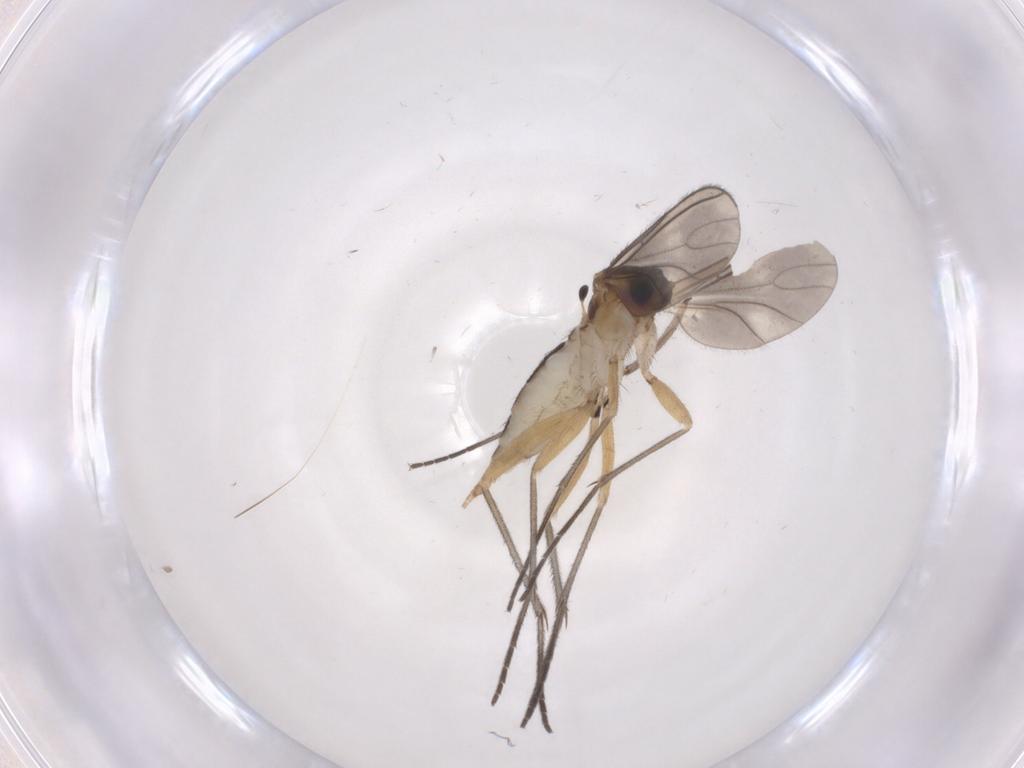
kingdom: Animalia
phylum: Arthropoda
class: Insecta
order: Diptera
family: Sciaridae
